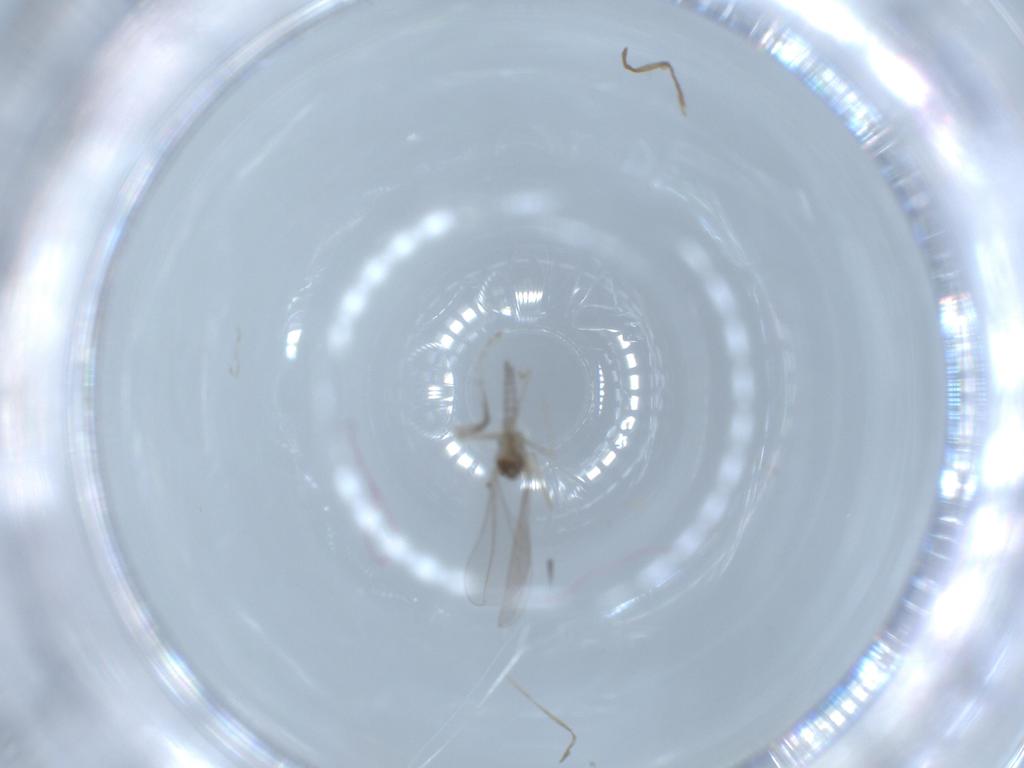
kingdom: Animalia
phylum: Arthropoda
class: Insecta
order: Diptera
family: Cecidomyiidae
